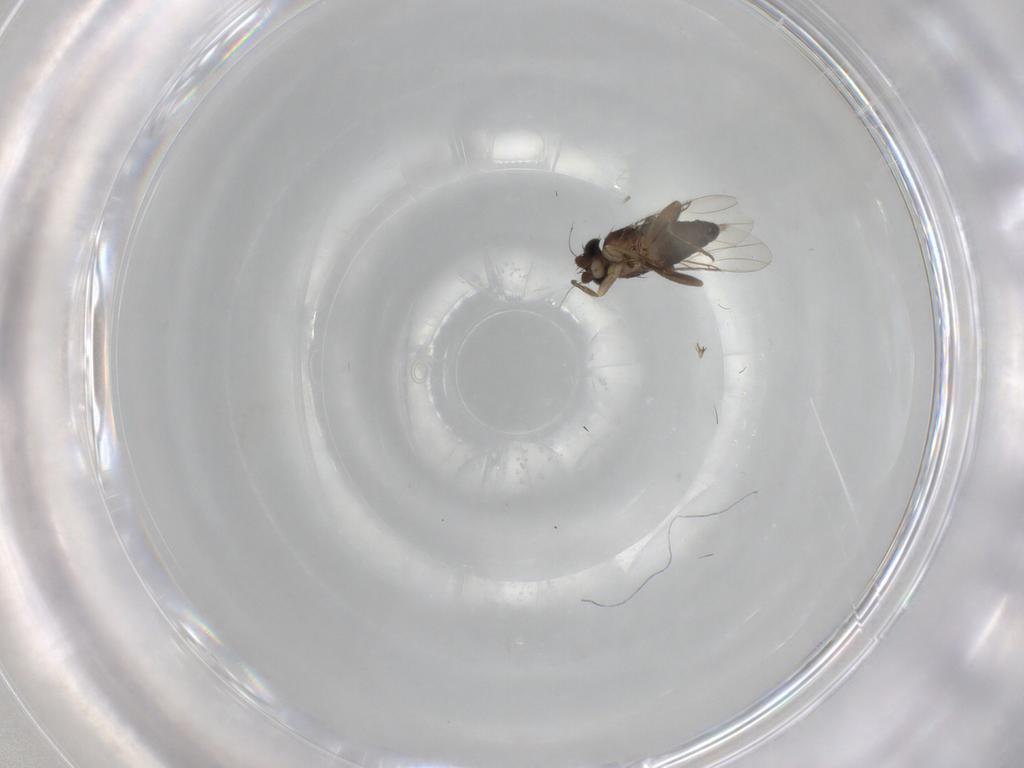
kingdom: Animalia
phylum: Arthropoda
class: Insecta
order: Diptera
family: Phoridae
